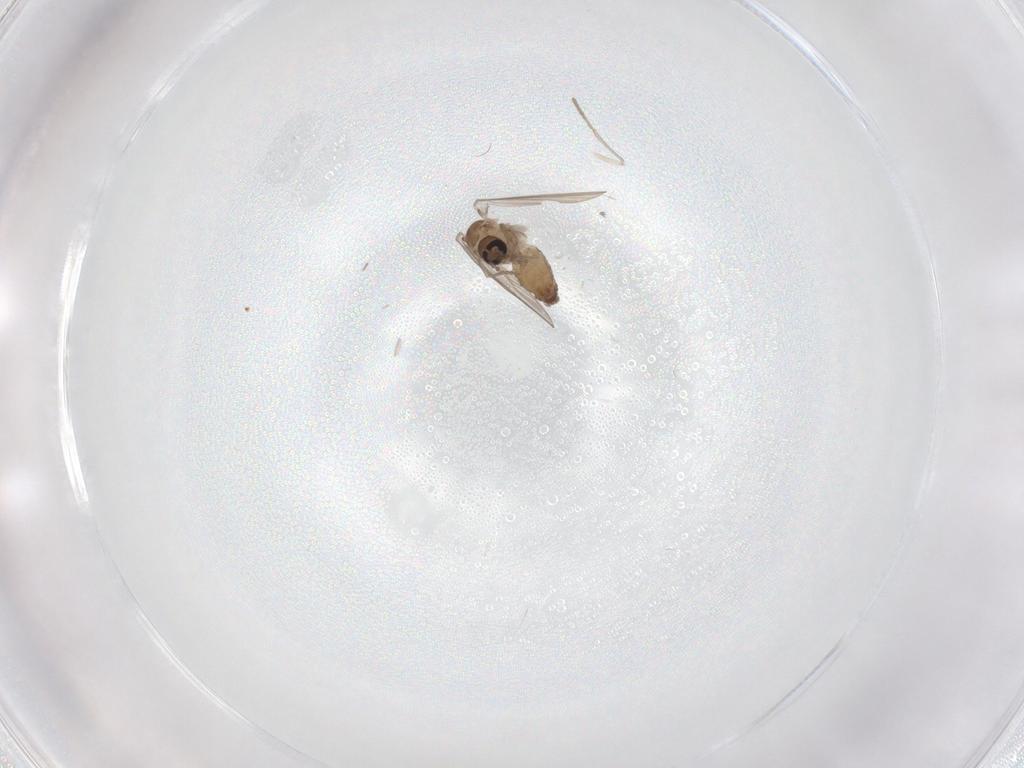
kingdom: Animalia
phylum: Arthropoda
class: Insecta
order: Diptera
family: Psychodidae
